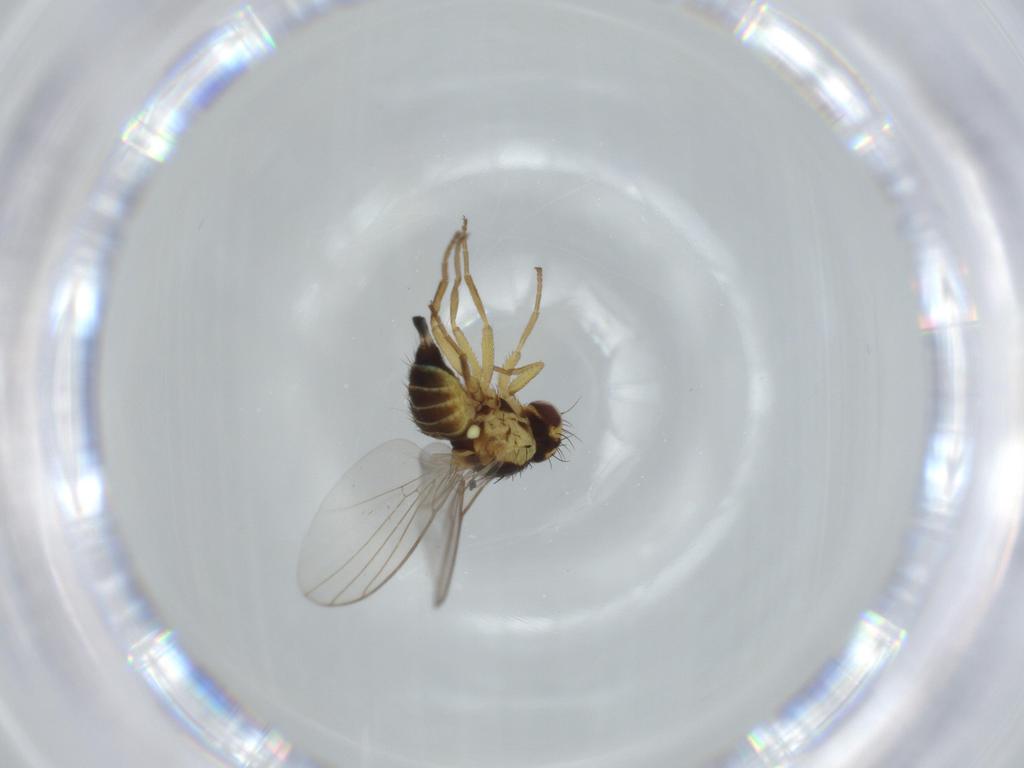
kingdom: Animalia
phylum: Arthropoda
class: Insecta
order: Diptera
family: Agromyzidae
